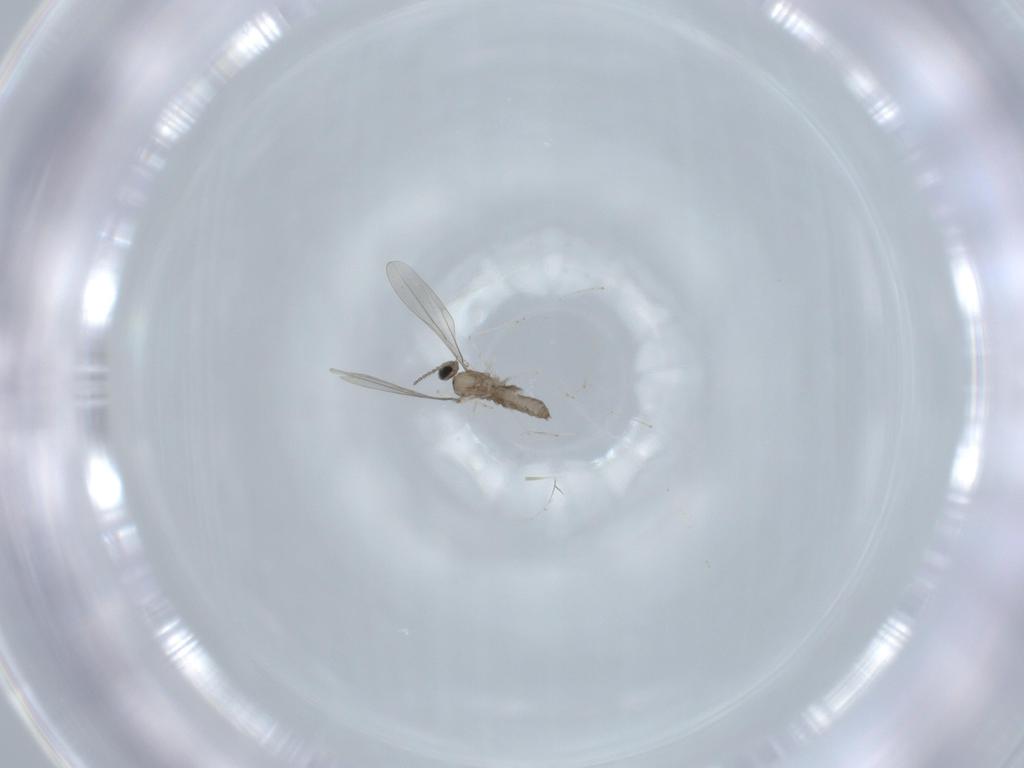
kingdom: Animalia
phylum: Arthropoda
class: Insecta
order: Diptera
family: Cecidomyiidae
